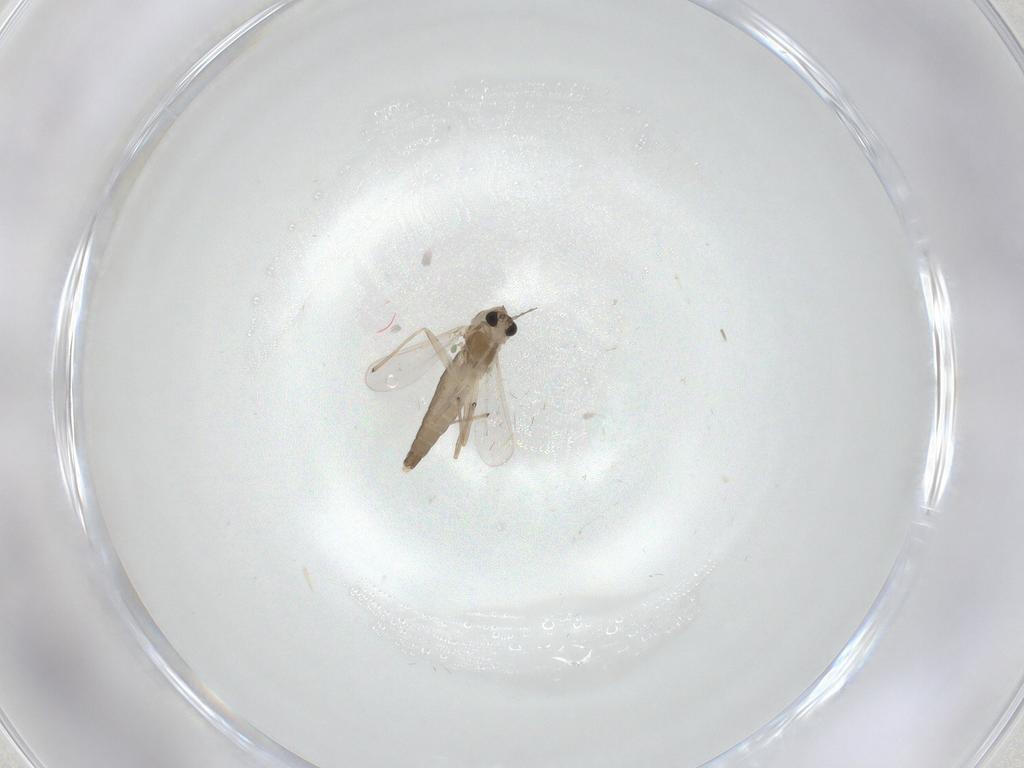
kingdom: Animalia
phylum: Arthropoda
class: Insecta
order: Diptera
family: Chironomidae
